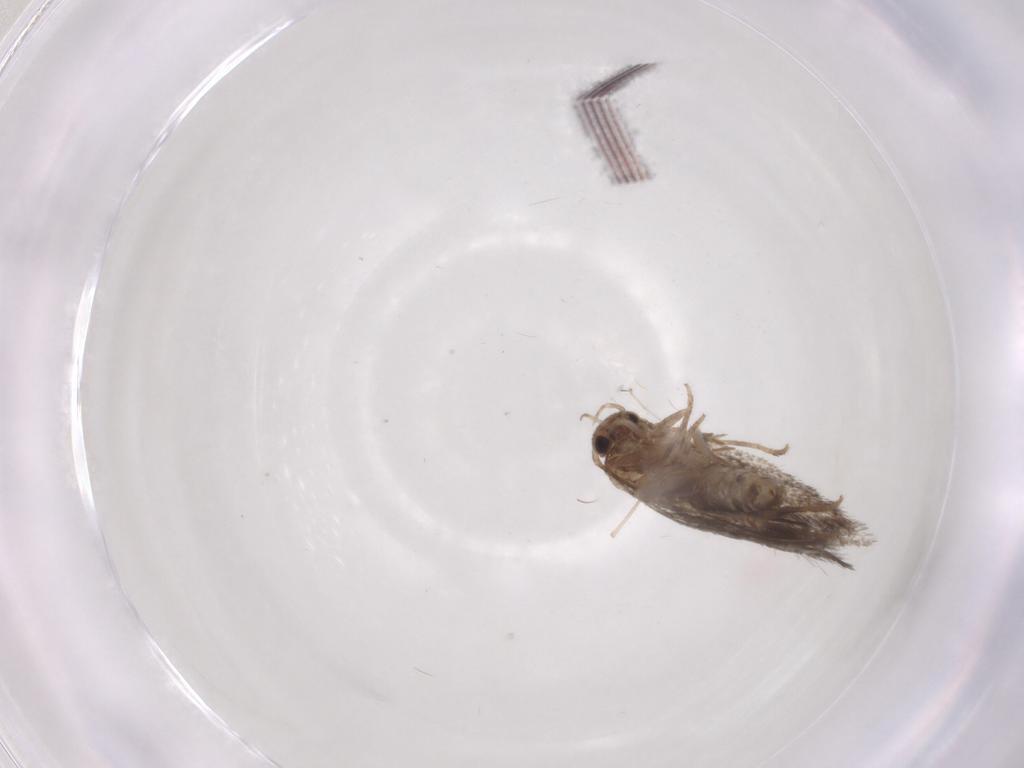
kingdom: Animalia
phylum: Arthropoda
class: Insecta
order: Lepidoptera
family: Elachistidae
